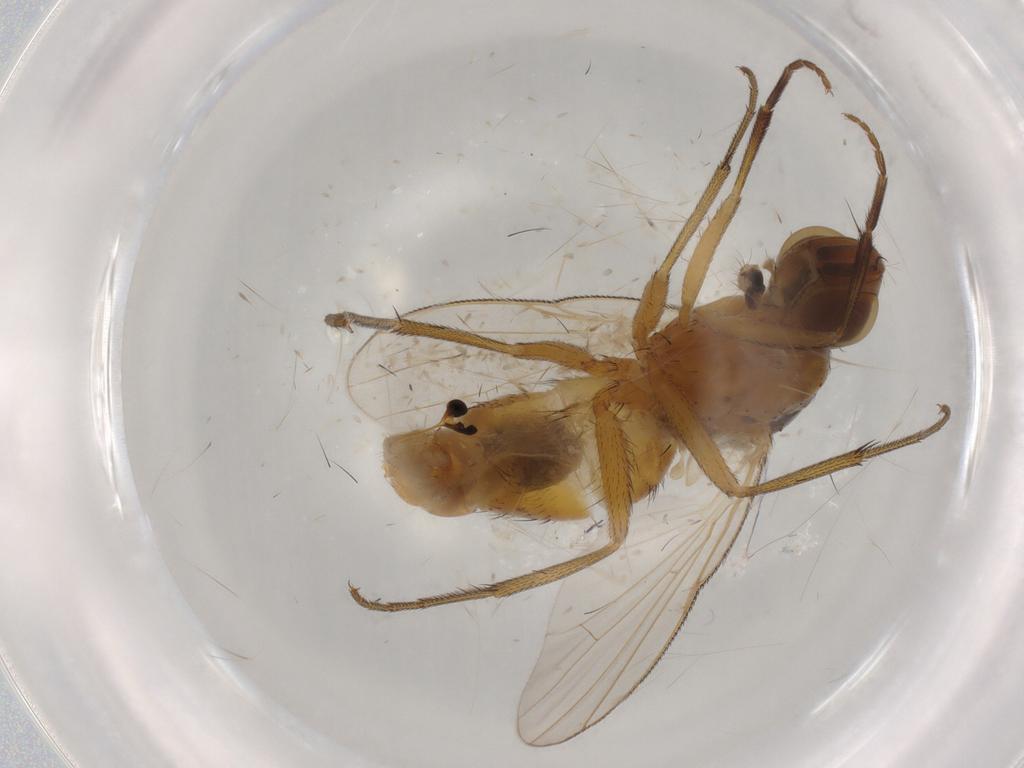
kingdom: Animalia
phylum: Arthropoda
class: Insecta
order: Diptera
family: Muscidae
